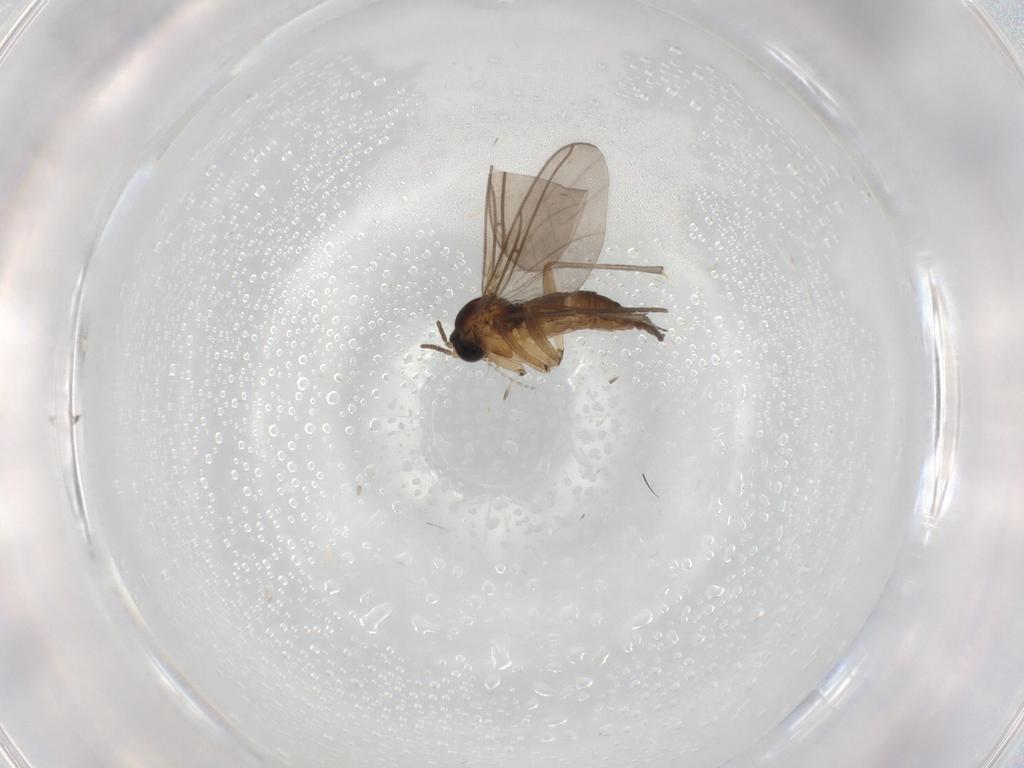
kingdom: Animalia
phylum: Arthropoda
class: Insecta
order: Diptera
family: Sciaridae
